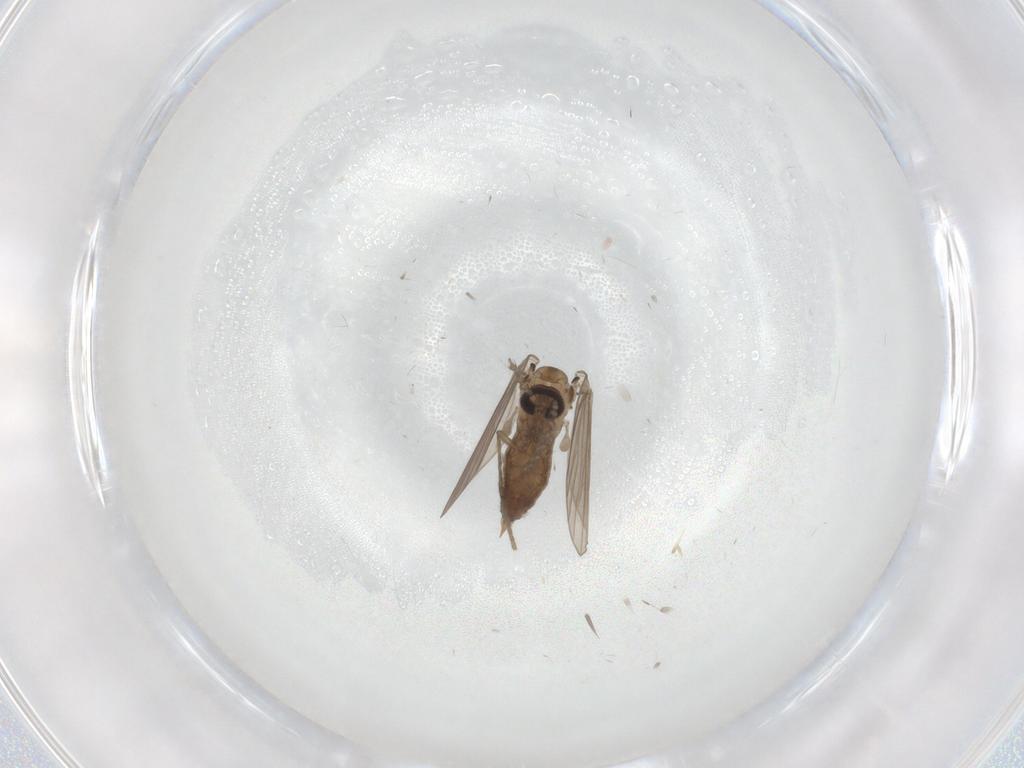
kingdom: Animalia
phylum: Arthropoda
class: Insecta
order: Diptera
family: Psychodidae
